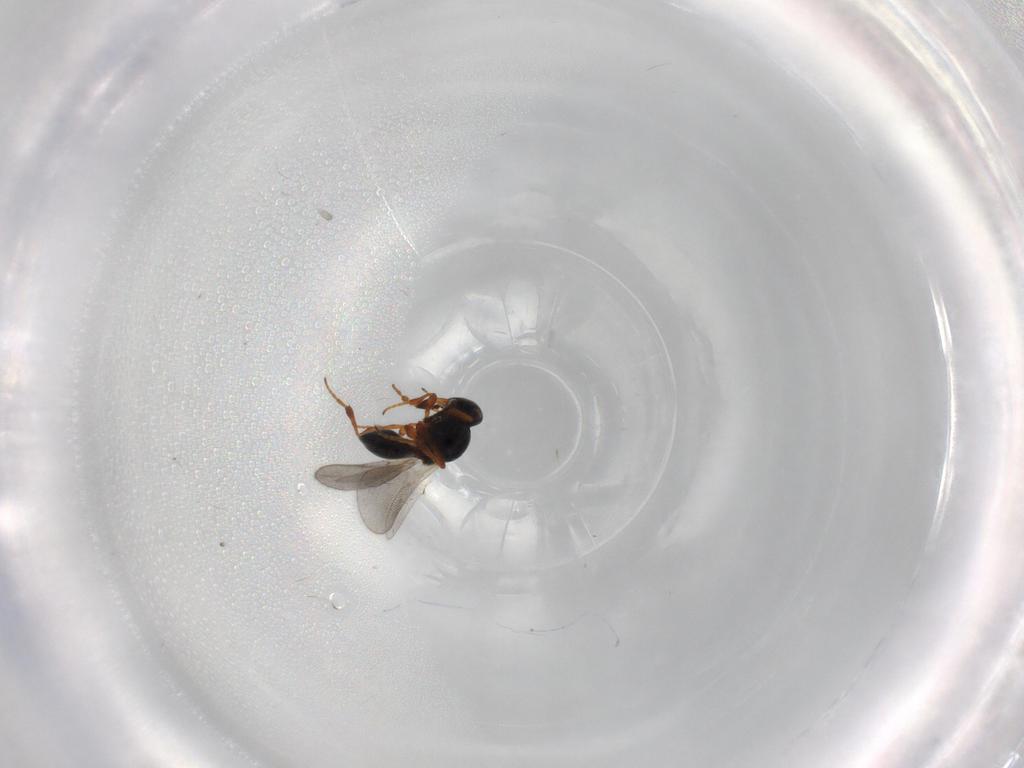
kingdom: Animalia
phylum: Arthropoda
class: Insecta
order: Hymenoptera
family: Platygastridae
